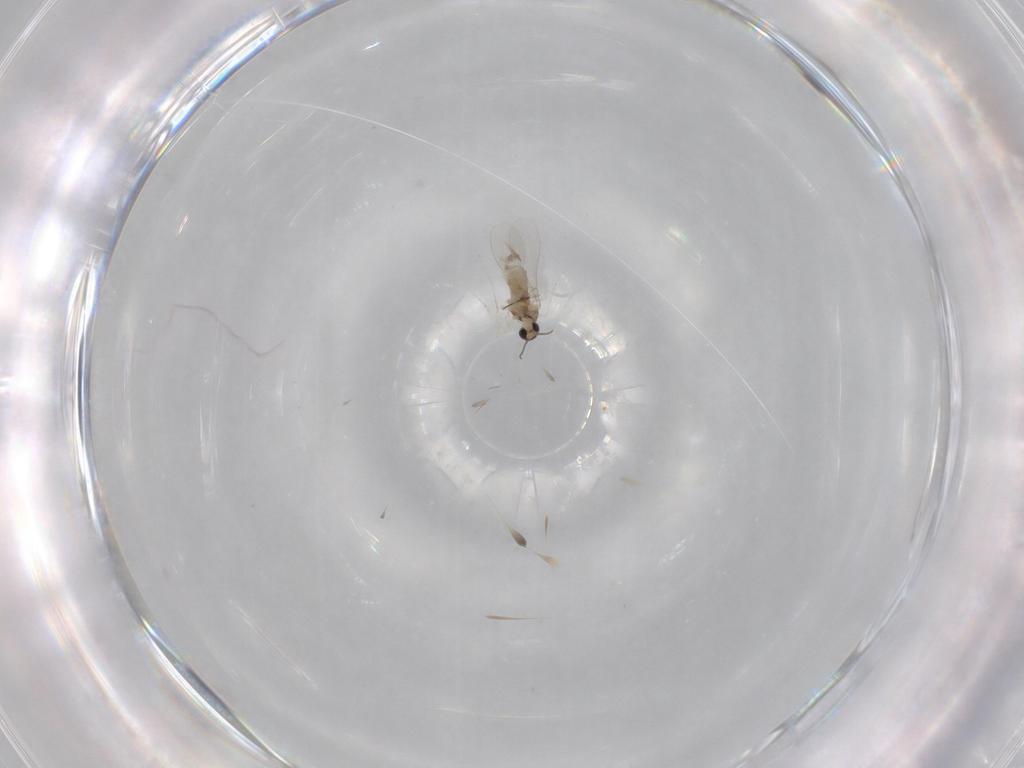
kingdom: Animalia
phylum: Arthropoda
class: Insecta
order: Diptera
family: Cecidomyiidae
